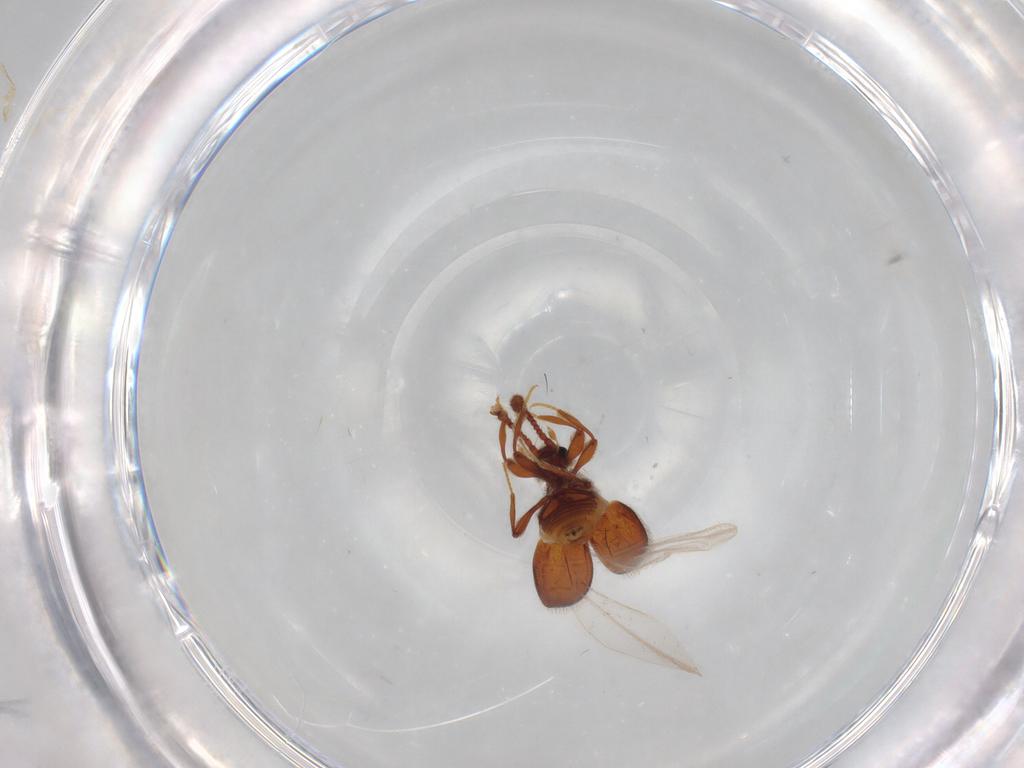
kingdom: Animalia
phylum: Arthropoda
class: Insecta
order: Coleoptera
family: Staphylinidae
